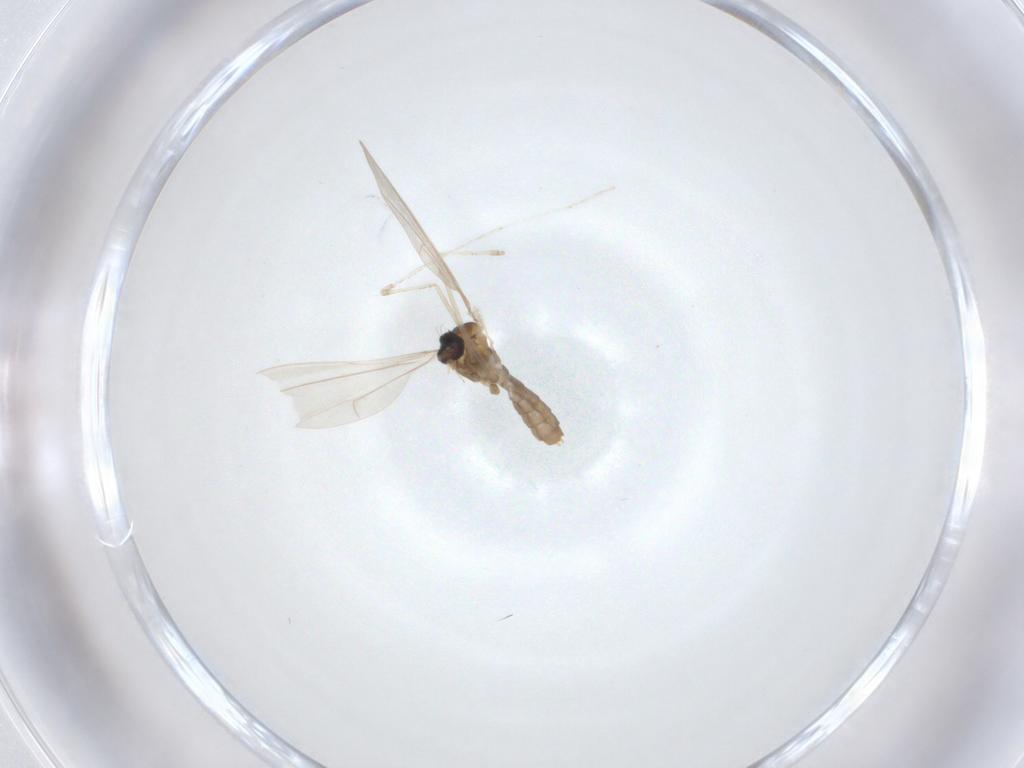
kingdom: Animalia
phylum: Arthropoda
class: Insecta
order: Diptera
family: Cecidomyiidae
